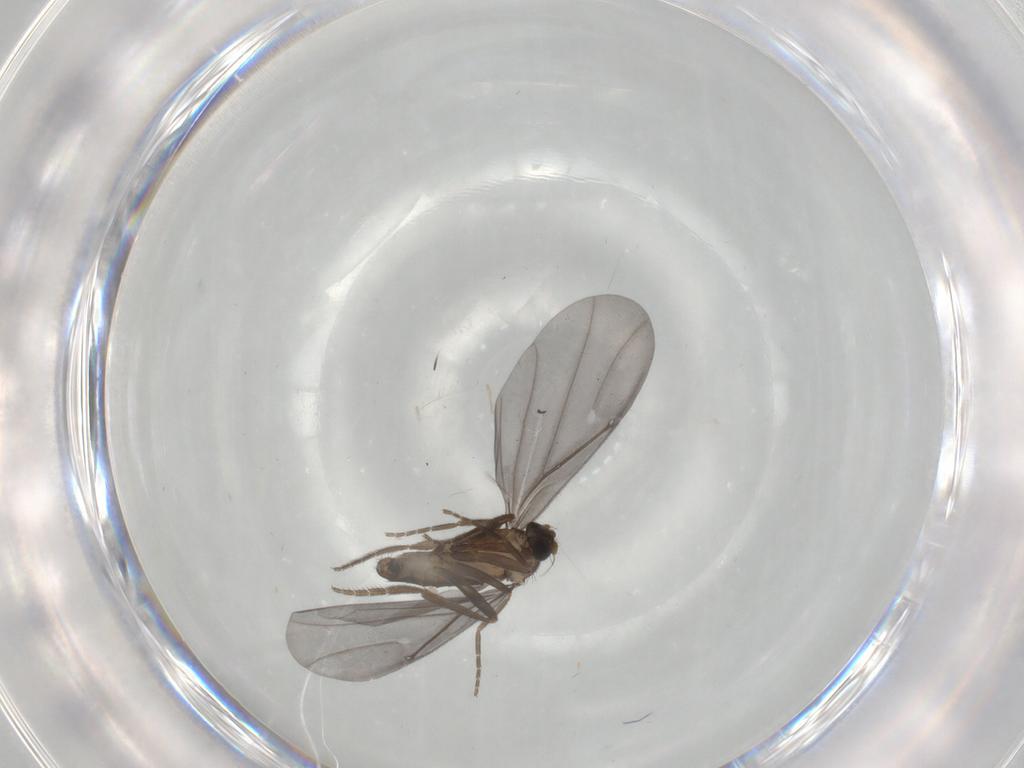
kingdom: Animalia
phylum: Arthropoda
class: Insecta
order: Diptera
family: Phoridae
